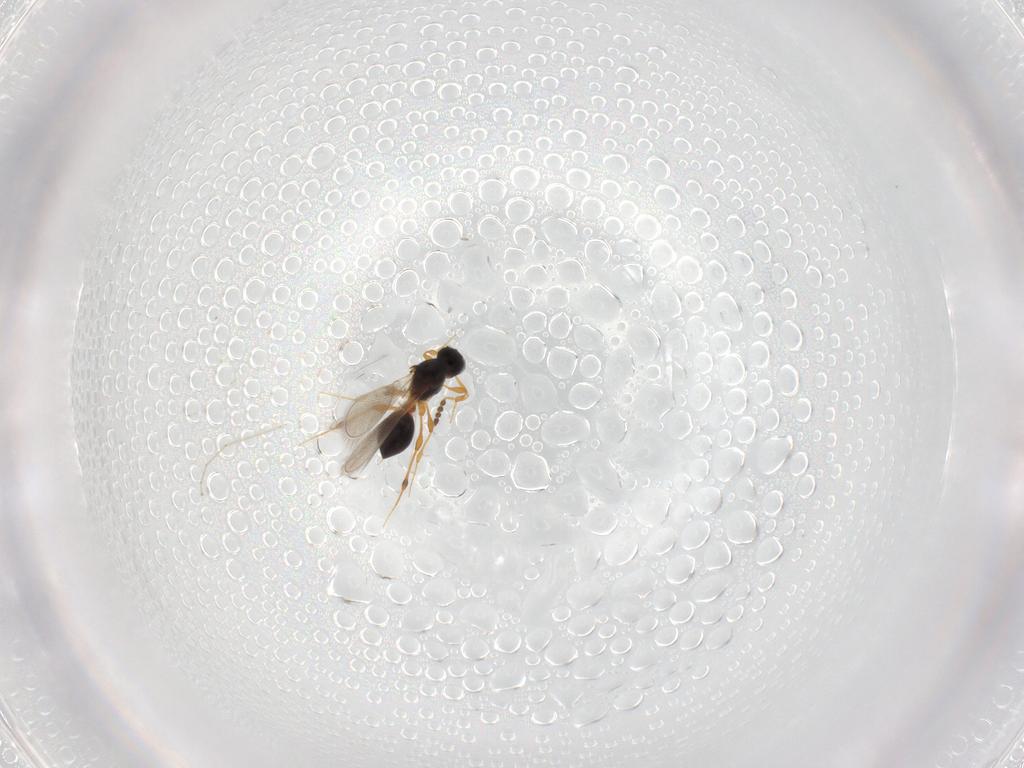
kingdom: Animalia
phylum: Arthropoda
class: Insecta
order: Hymenoptera
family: Platygastridae
